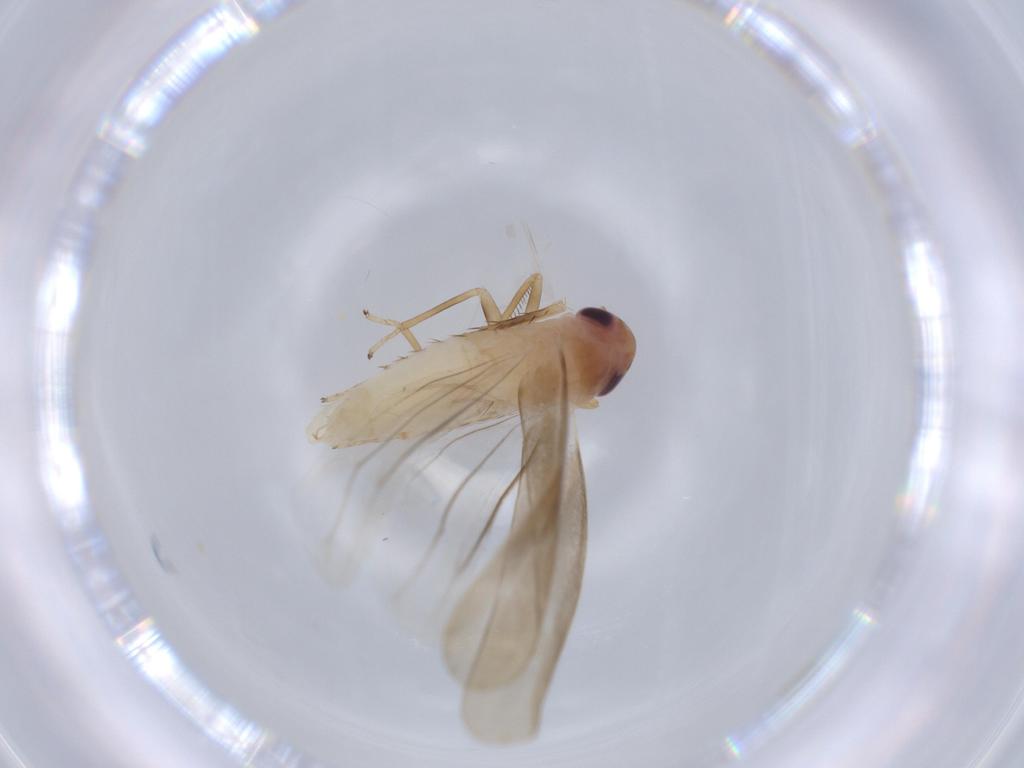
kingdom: Animalia
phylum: Arthropoda
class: Insecta
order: Hemiptera
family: Cicadellidae
